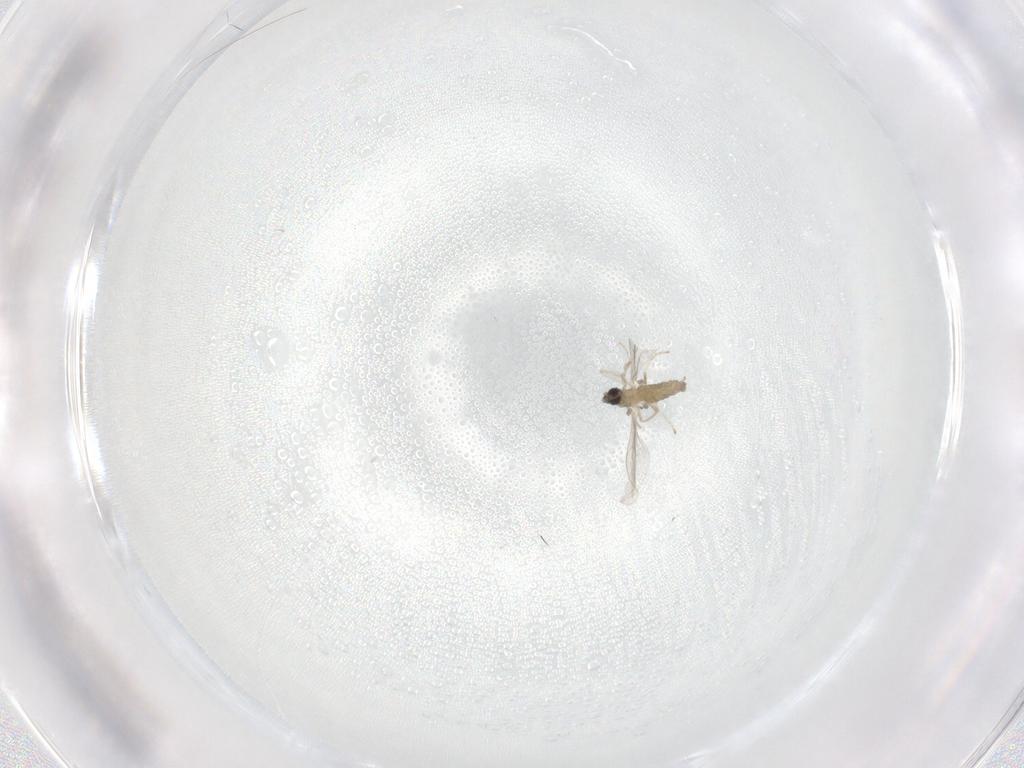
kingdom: Animalia
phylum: Arthropoda
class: Insecta
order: Diptera
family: Cecidomyiidae
